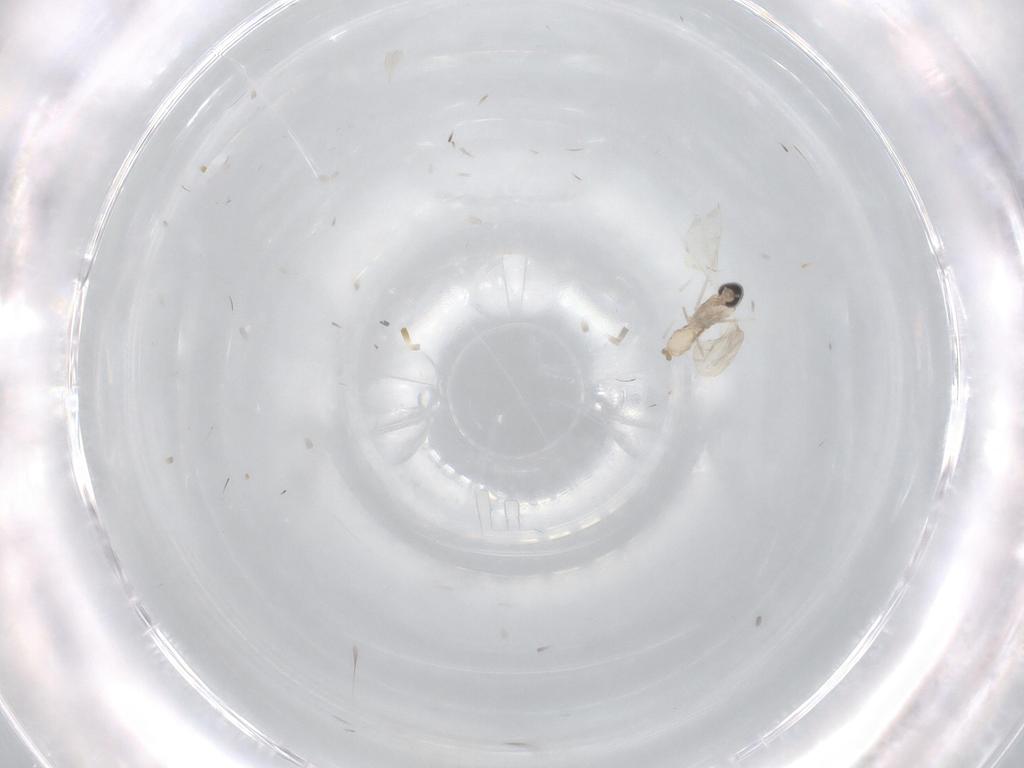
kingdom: Animalia
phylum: Arthropoda
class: Insecta
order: Diptera
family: Cecidomyiidae
